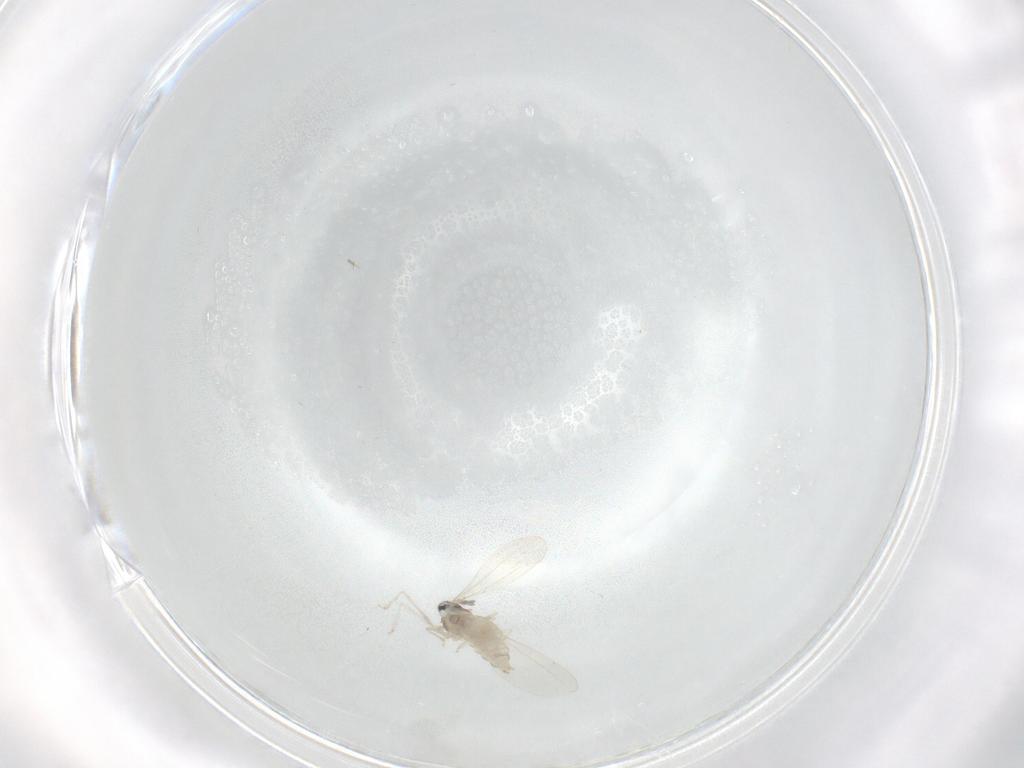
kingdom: Animalia
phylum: Arthropoda
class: Insecta
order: Diptera
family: Cecidomyiidae
